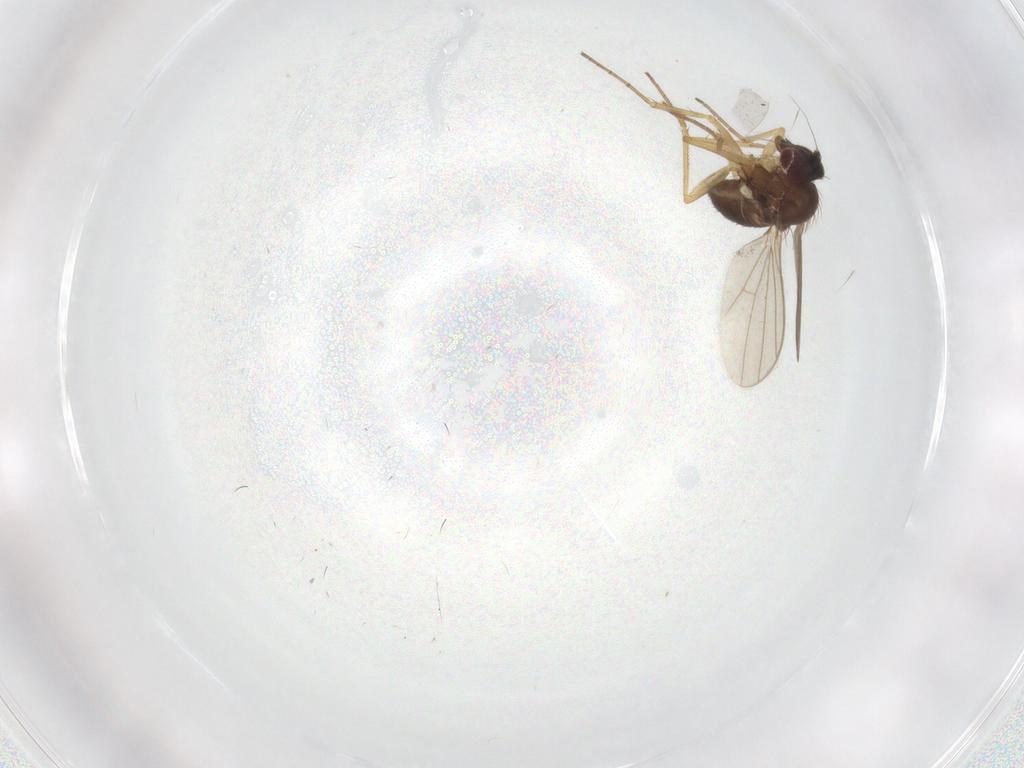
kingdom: Animalia
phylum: Arthropoda
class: Insecta
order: Diptera
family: Dolichopodidae
